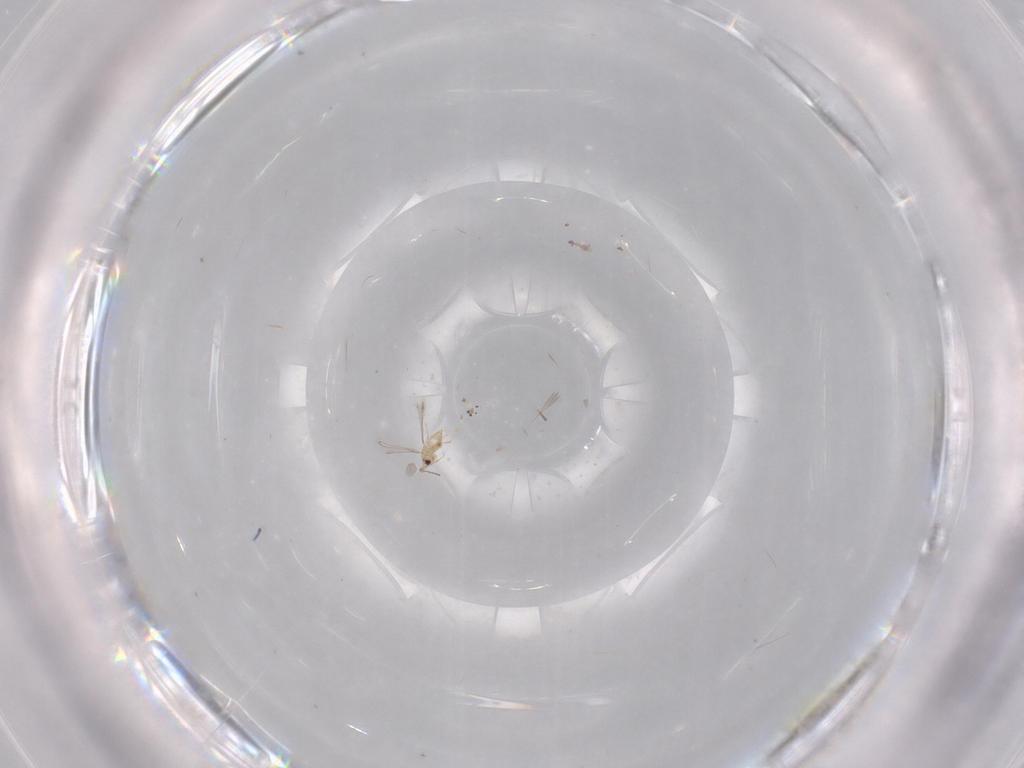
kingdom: Animalia
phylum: Arthropoda
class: Insecta
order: Hymenoptera
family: Mymaridae
